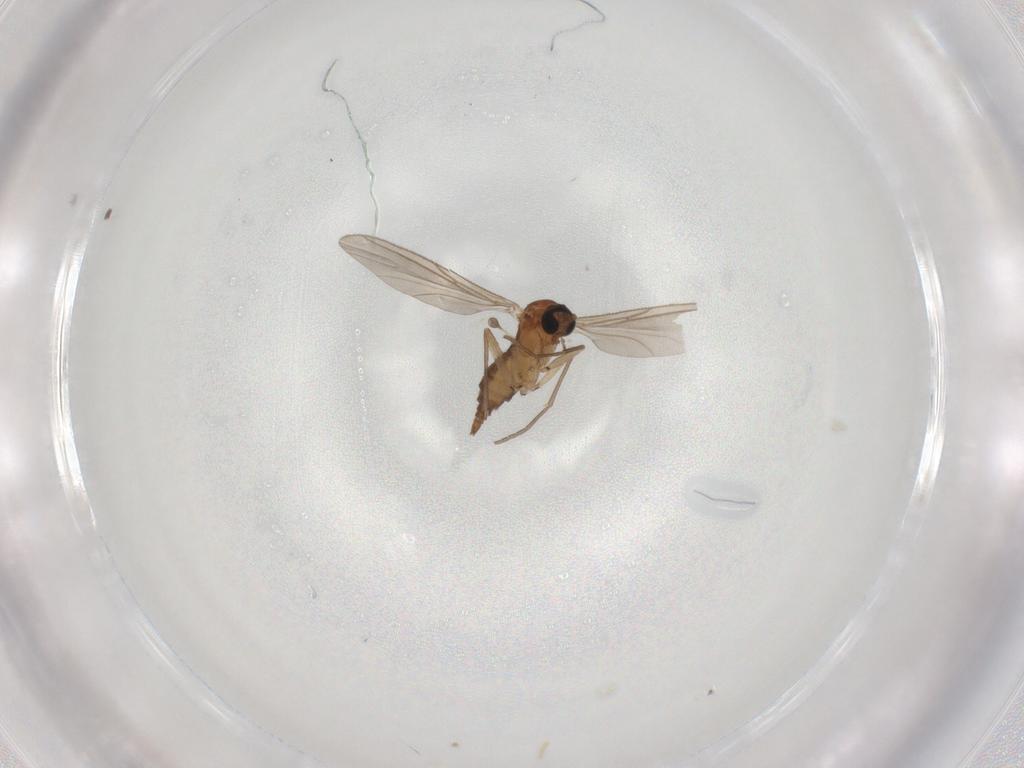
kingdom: Animalia
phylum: Arthropoda
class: Insecta
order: Diptera
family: Sciaridae
